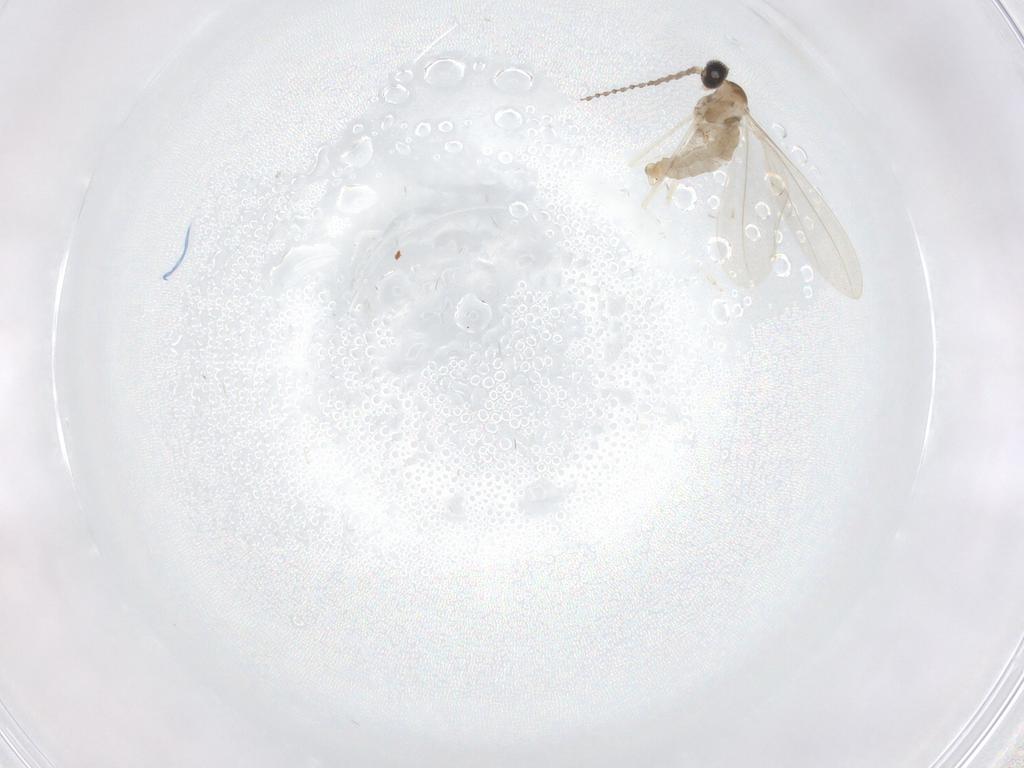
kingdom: Animalia
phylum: Arthropoda
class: Insecta
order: Diptera
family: Cecidomyiidae
